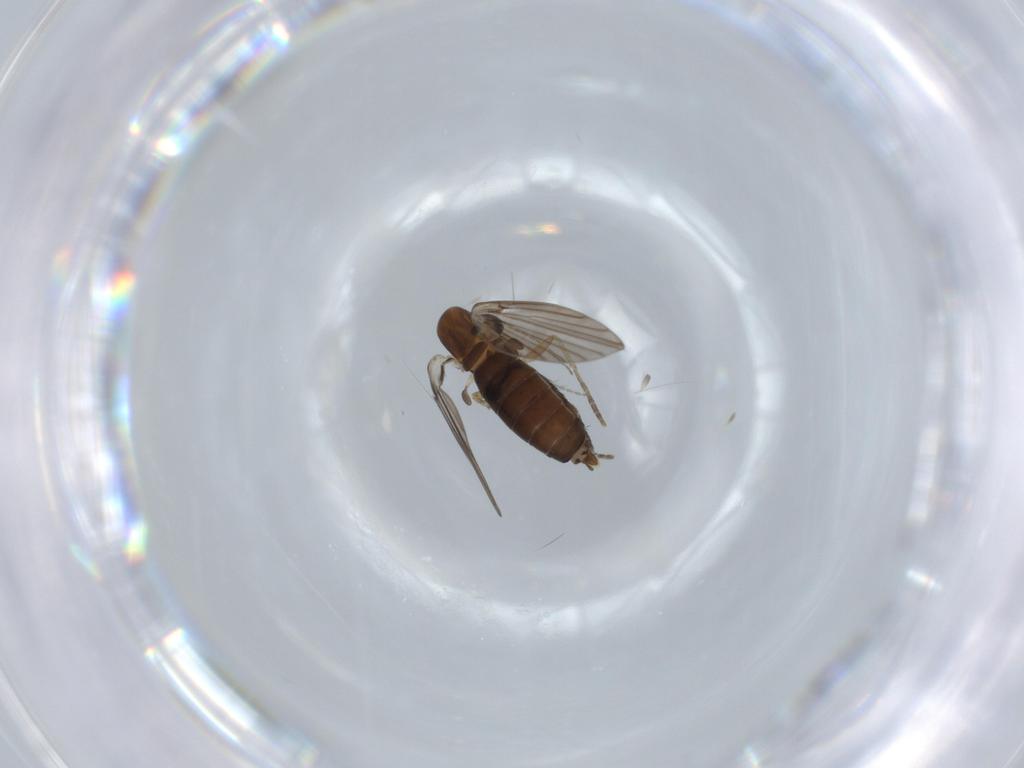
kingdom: Animalia
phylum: Arthropoda
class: Insecta
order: Diptera
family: Psychodidae
